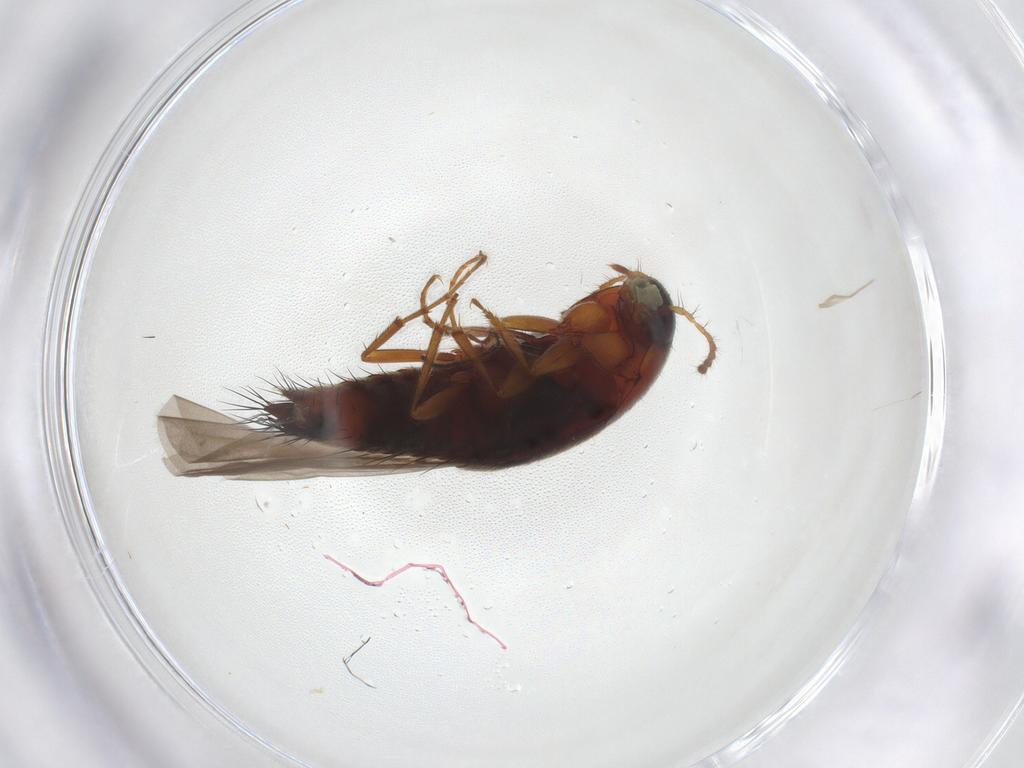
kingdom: Animalia
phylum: Arthropoda
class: Insecta
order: Coleoptera
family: Staphylinidae
